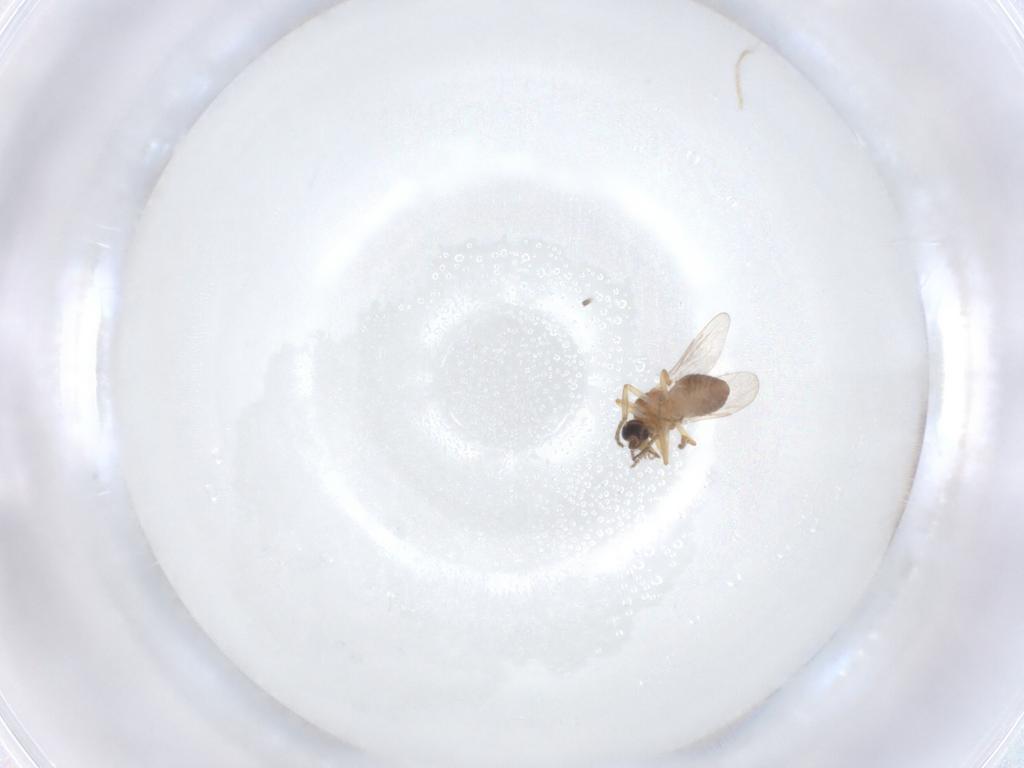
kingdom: Animalia
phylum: Arthropoda
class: Insecta
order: Diptera
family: Ceratopogonidae
